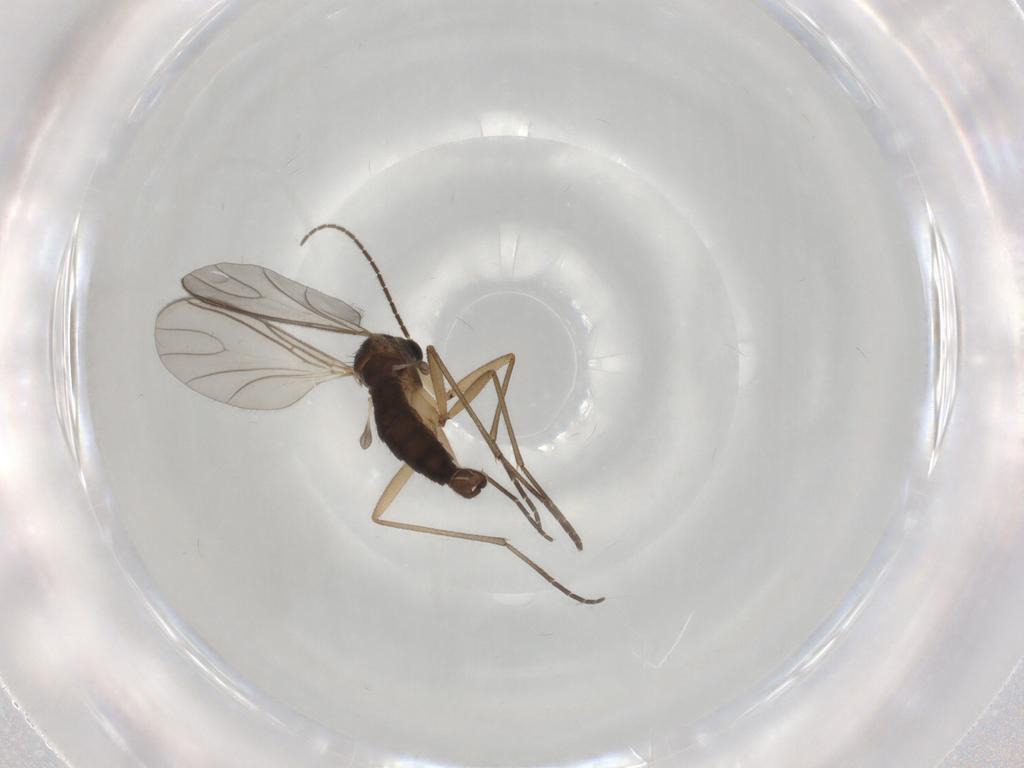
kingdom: Animalia
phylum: Arthropoda
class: Insecta
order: Diptera
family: Sciaridae
